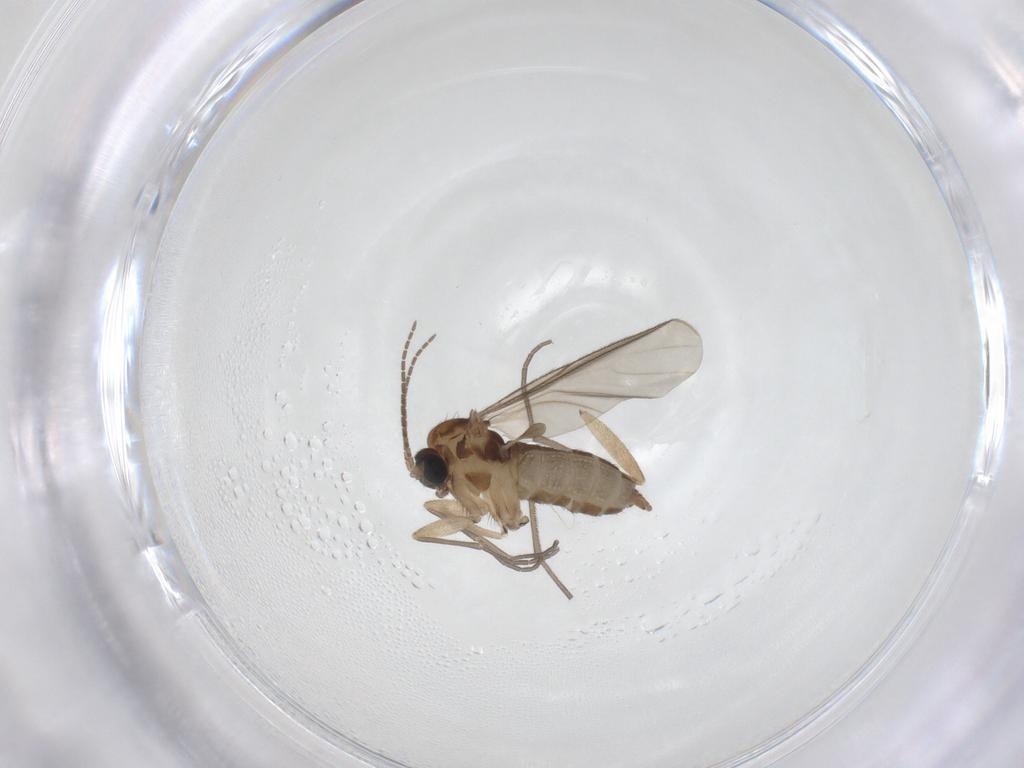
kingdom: Animalia
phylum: Arthropoda
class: Insecta
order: Diptera
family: Sciaridae
